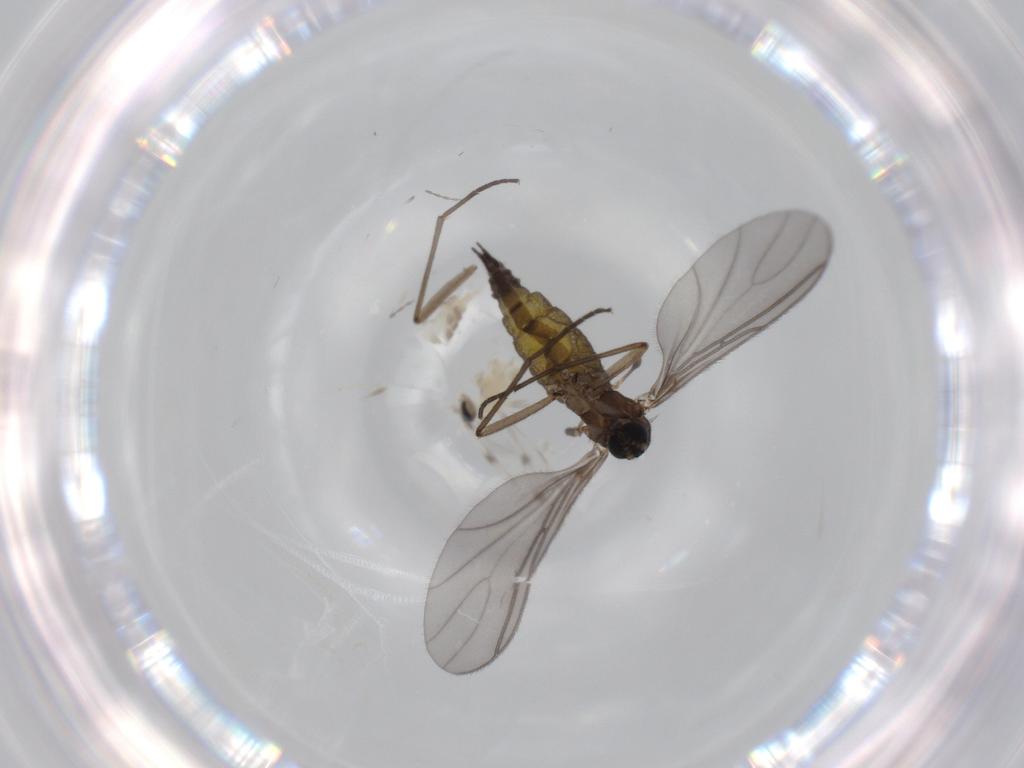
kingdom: Animalia
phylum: Arthropoda
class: Insecta
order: Diptera
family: Cecidomyiidae
